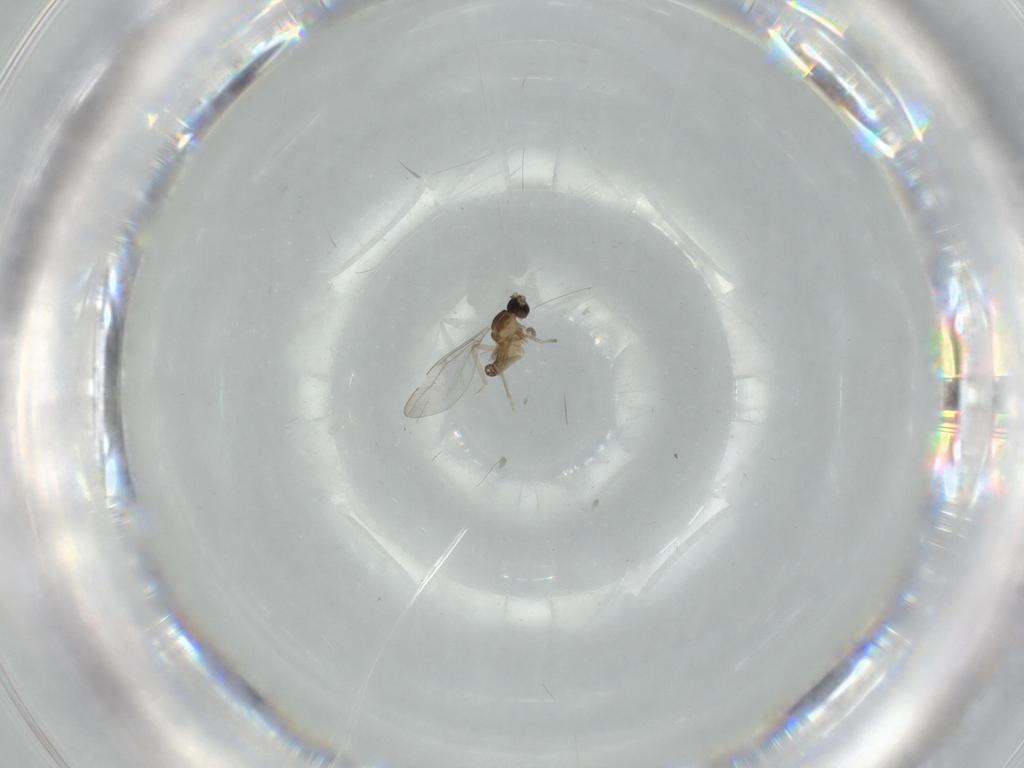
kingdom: Animalia
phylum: Arthropoda
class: Insecta
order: Diptera
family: Cecidomyiidae
